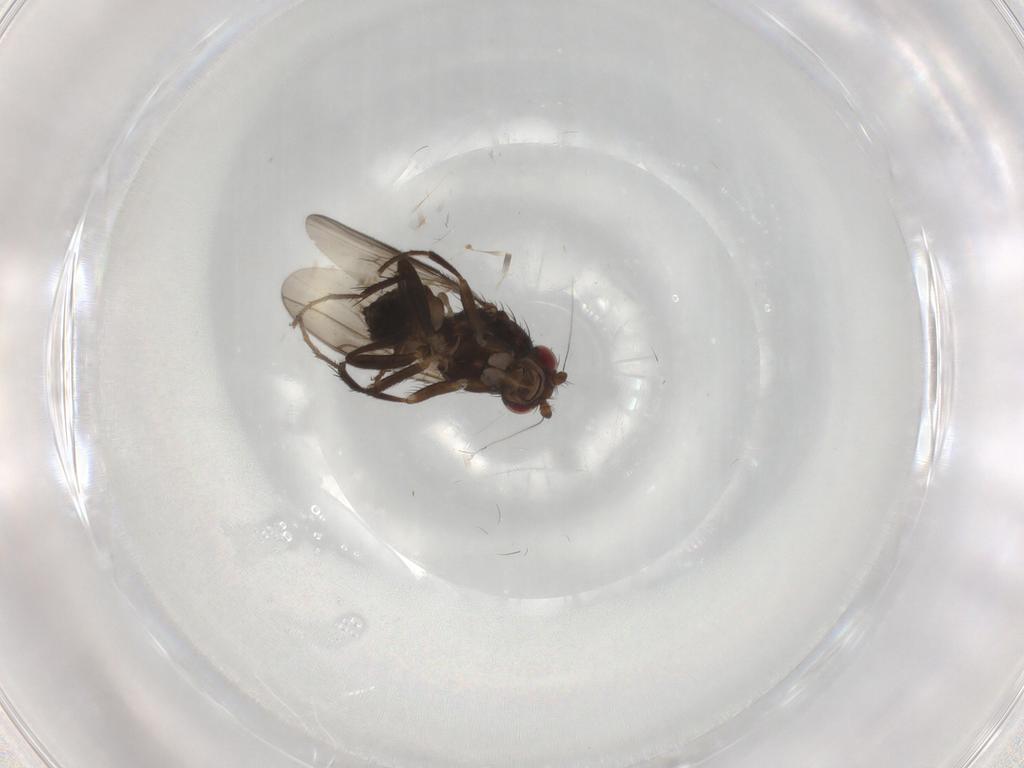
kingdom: Animalia
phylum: Arthropoda
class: Insecta
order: Diptera
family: Sphaeroceridae
